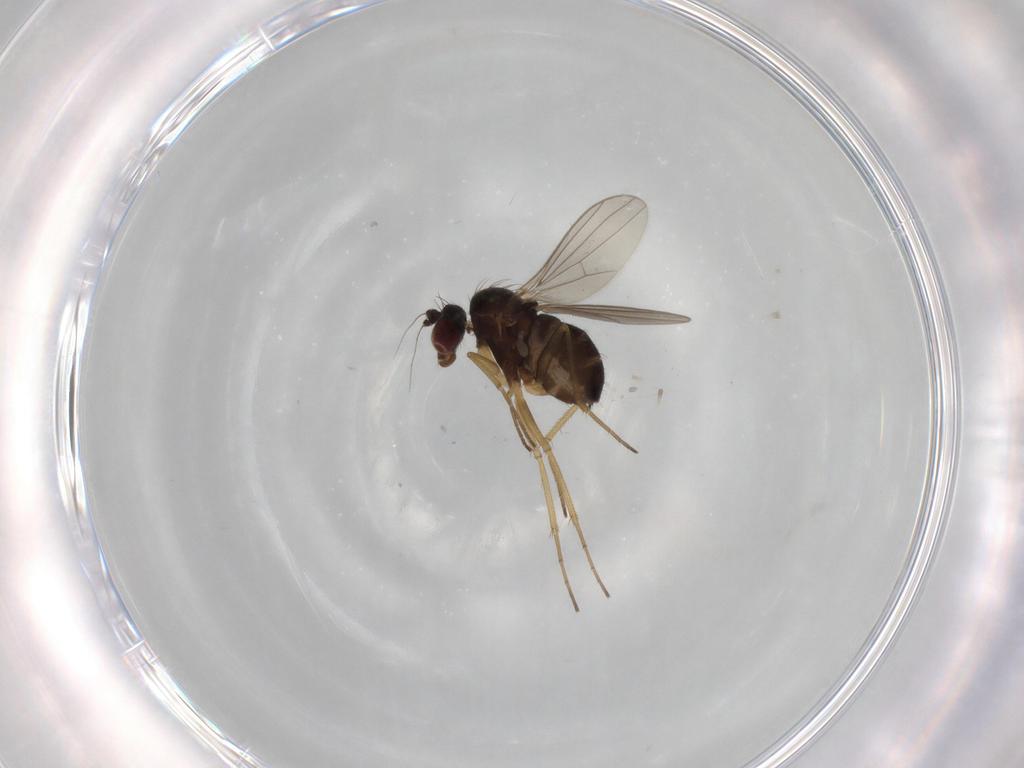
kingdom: Animalia
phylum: Arthropoda
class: Insecta
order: Diptera
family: Dolichopodidae
